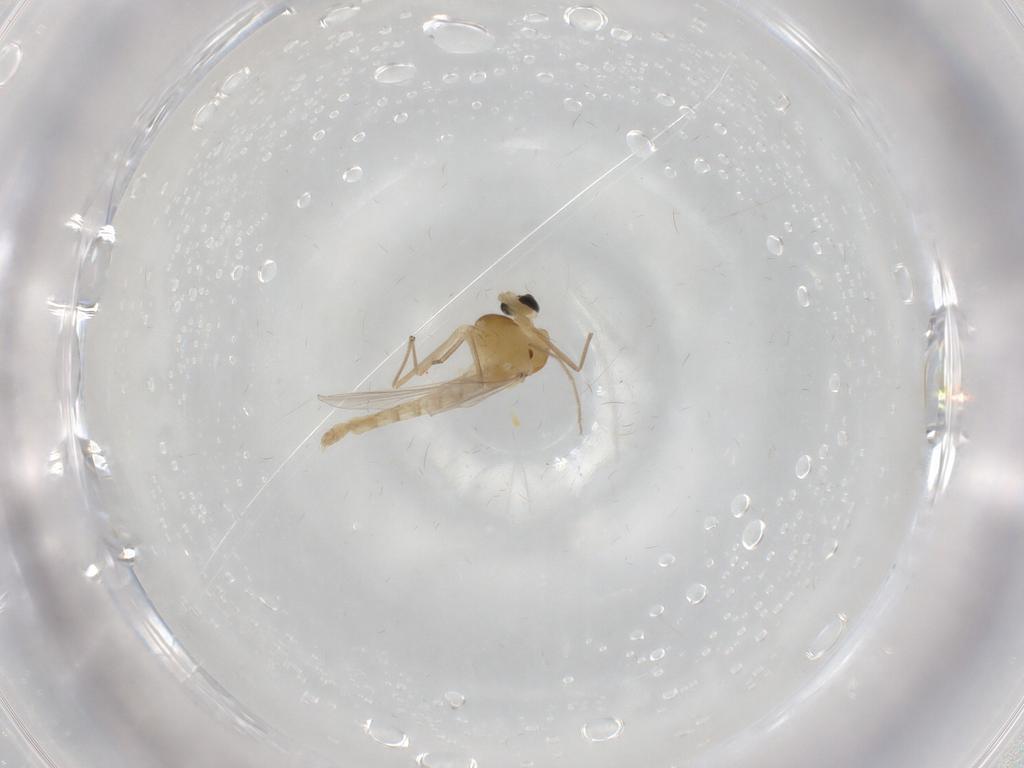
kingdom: Animalia
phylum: Arthropoda
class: Insecta
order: Diptera
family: Chironomidae
